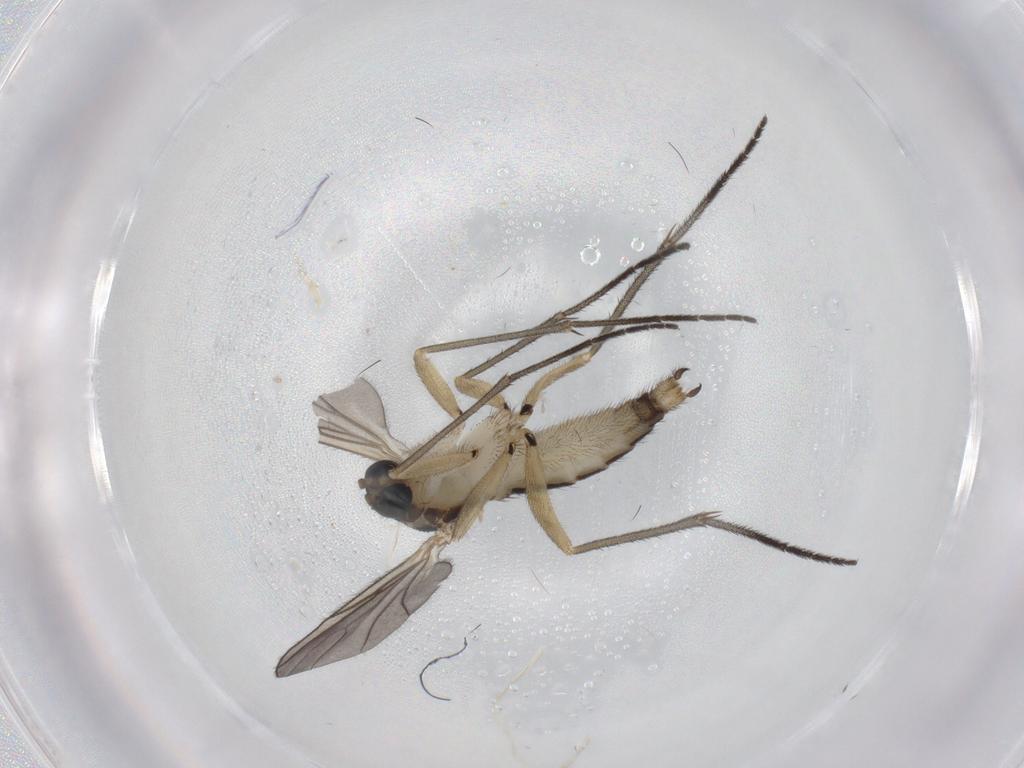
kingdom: Animalia
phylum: Arthropoda
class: Insecta
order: Diptera
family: Sciaridae
